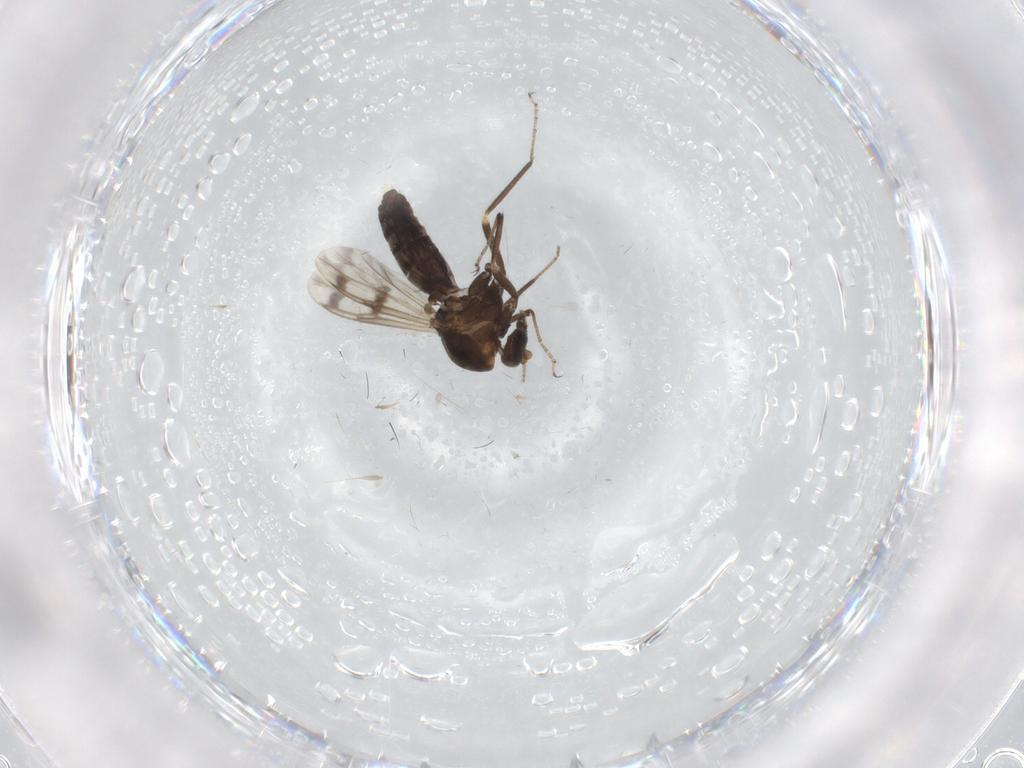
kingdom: Animalia
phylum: Arthropoda
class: Insecta
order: Diptera
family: Ceratopogonidae
